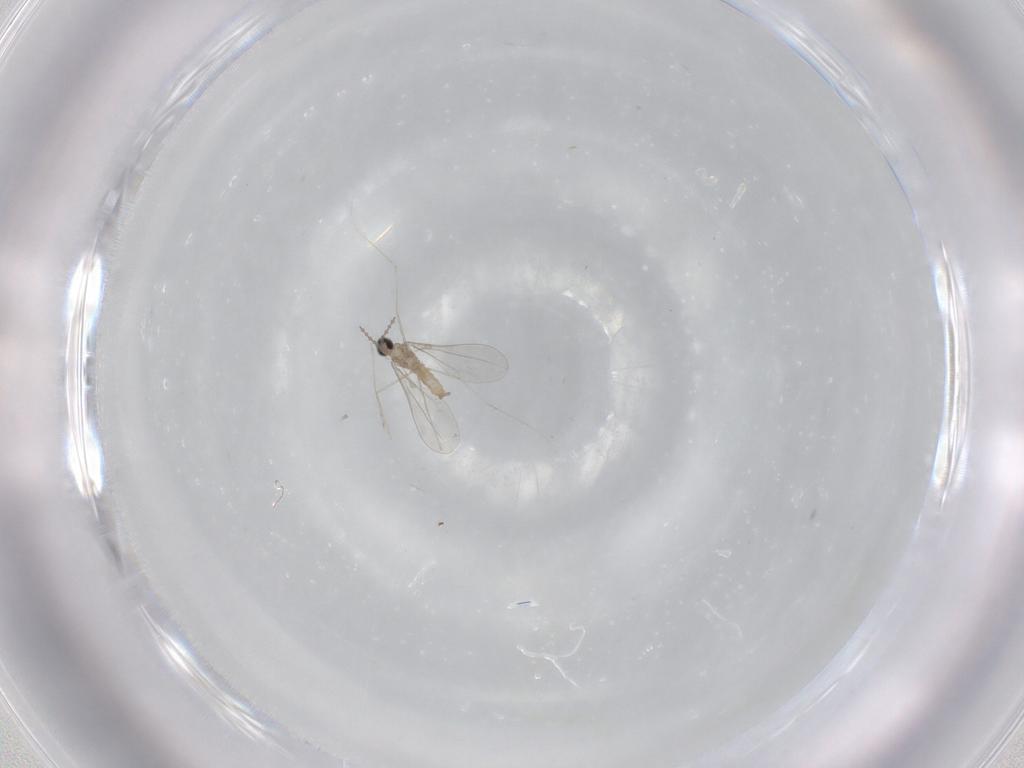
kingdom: Animalia
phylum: Arthropoda
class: Insecta
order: Diptera
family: Cecidomyiidae
